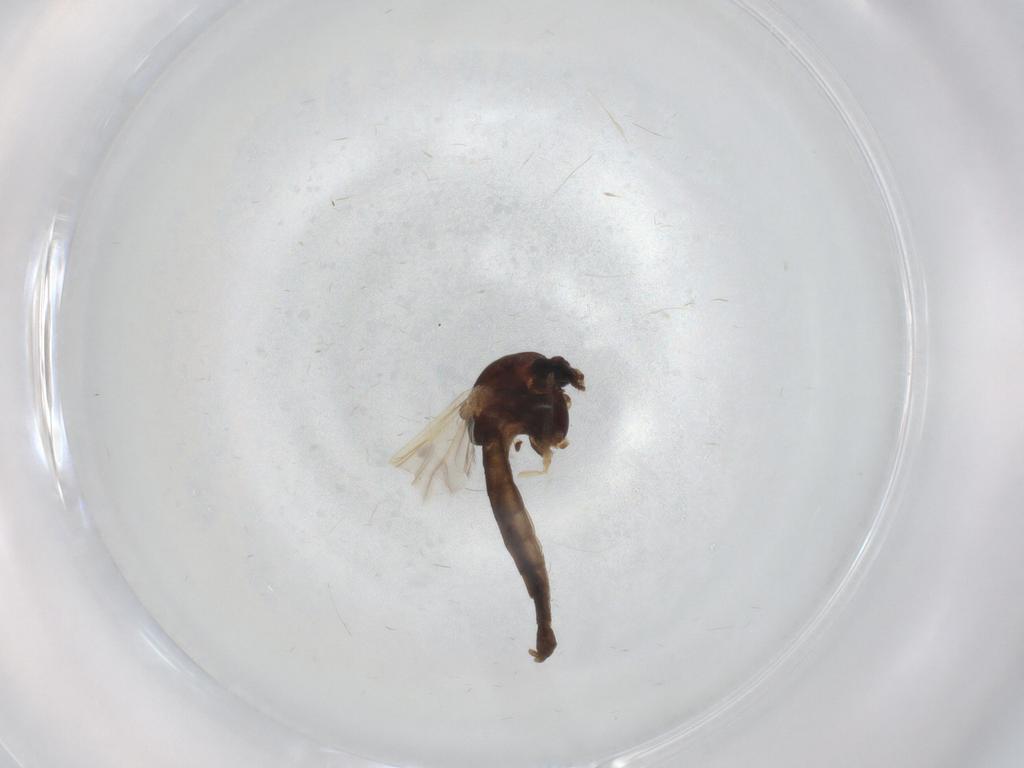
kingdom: Animalia
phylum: Arthropoda
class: Insecta
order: Diptera
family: Chironomidae
